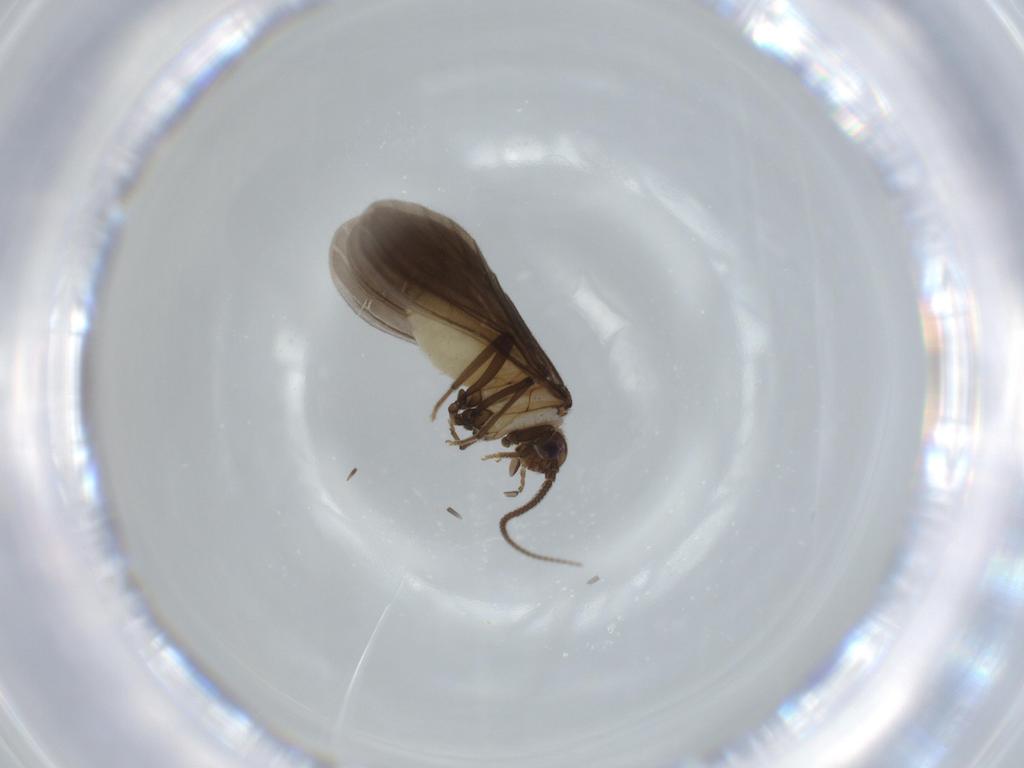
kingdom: Animalia
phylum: Arthropoda
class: Insecta
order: Neuroptera
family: Coniopterygidae
